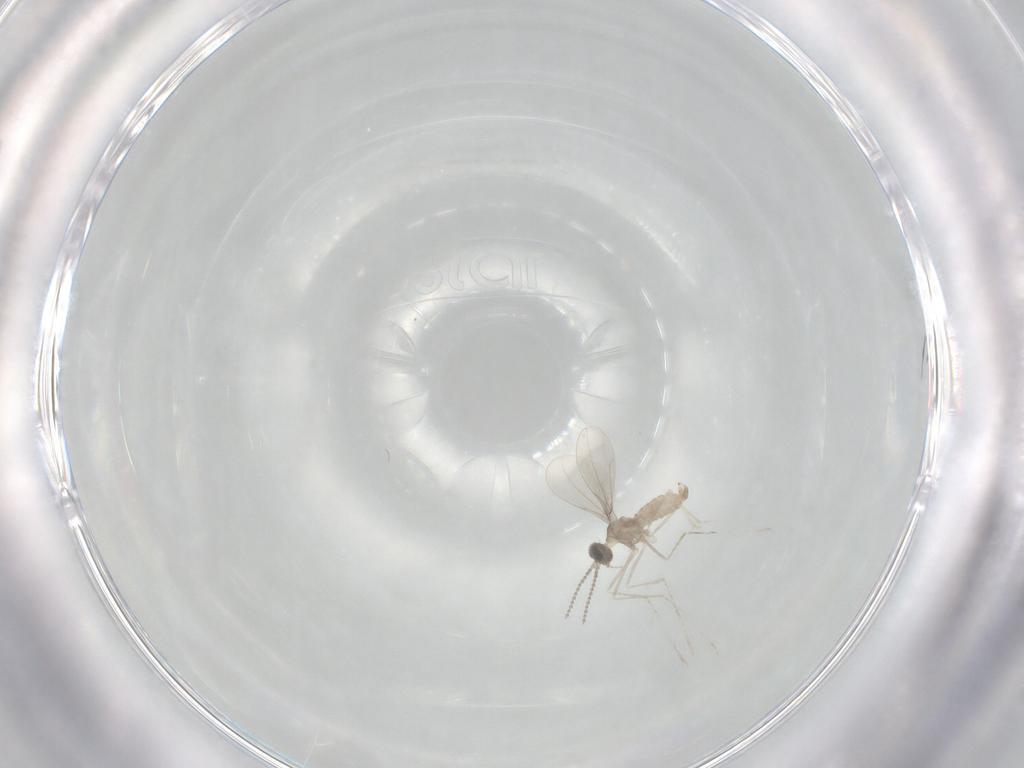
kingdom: Animalia
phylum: Arthropoda
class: Insecta
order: Diptera
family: Cecidomyiidae
